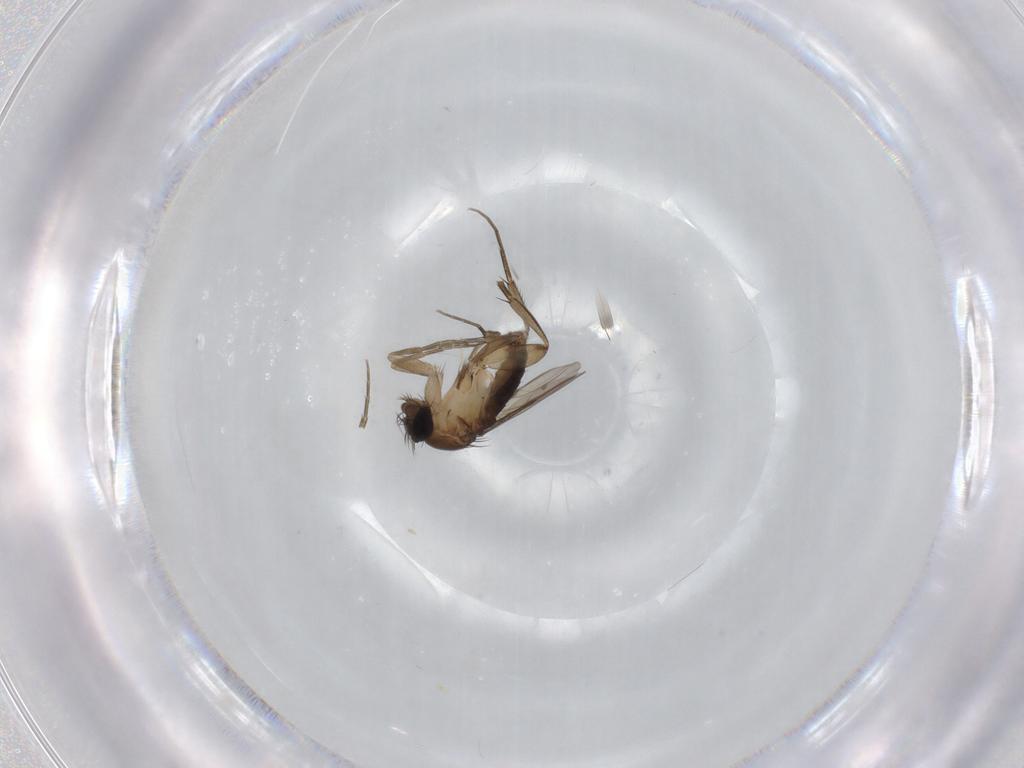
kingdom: Animalia
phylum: Arthropoda
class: Insecta
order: Diptera
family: Phoridae
